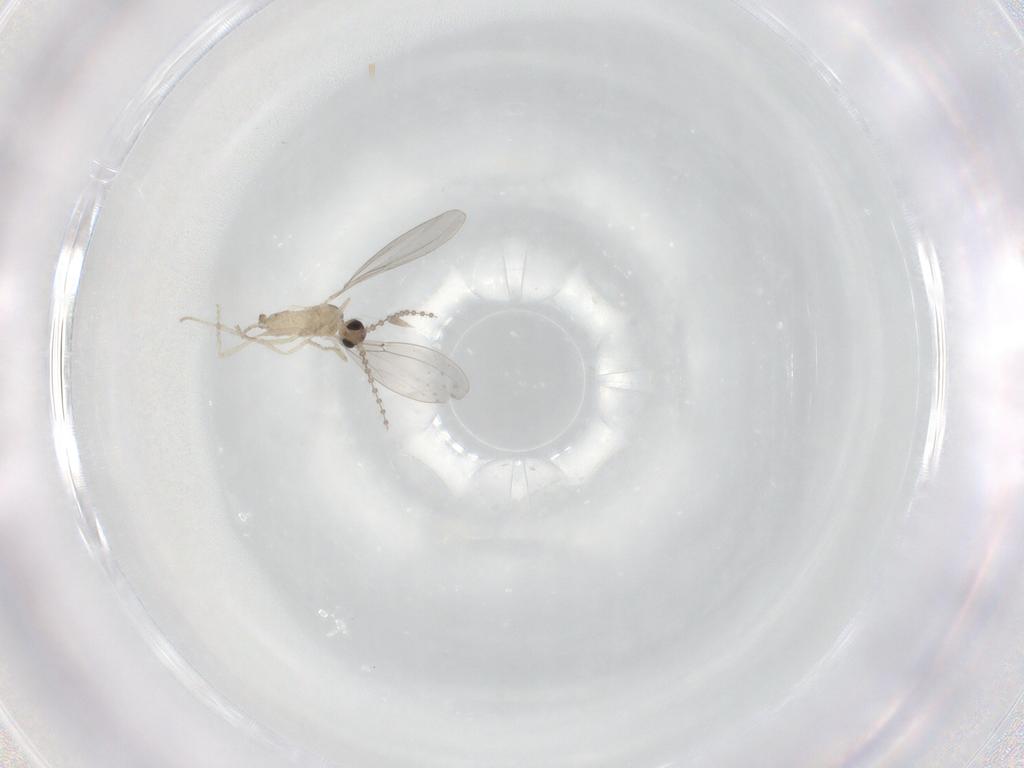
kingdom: Animalia
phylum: Arthropoda
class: Insecta
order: Diptera
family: Cecidomyiidae
